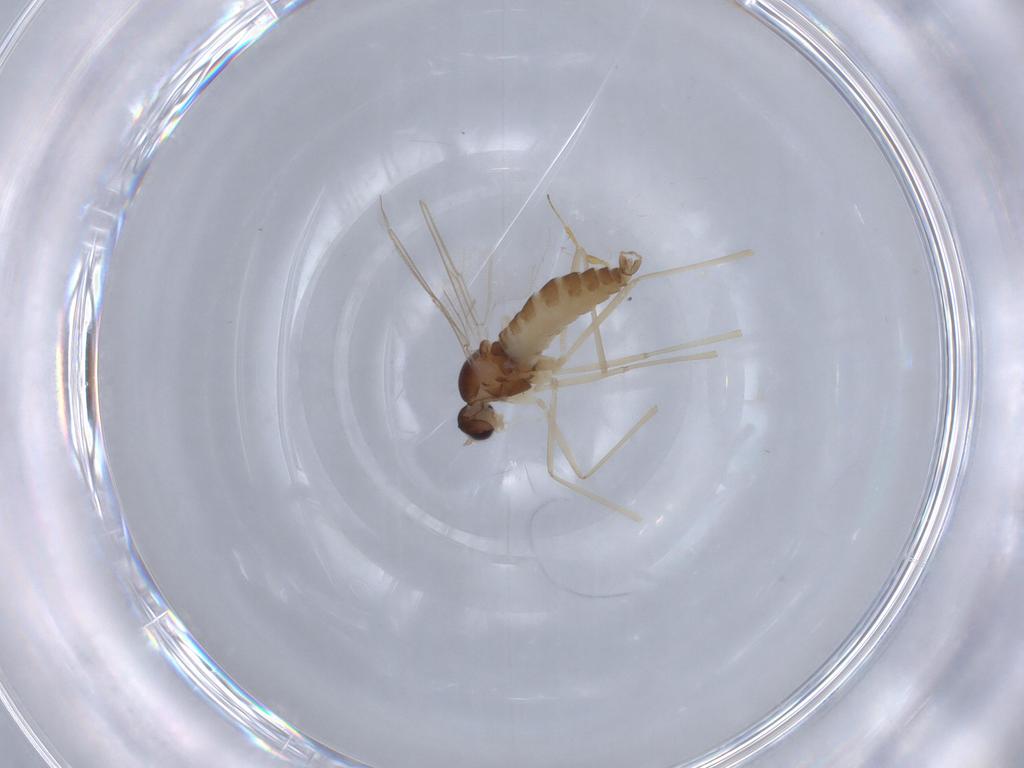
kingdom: Animalia
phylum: Arthropoda
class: Insecta
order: Diptera
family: Cecidomyiidae
